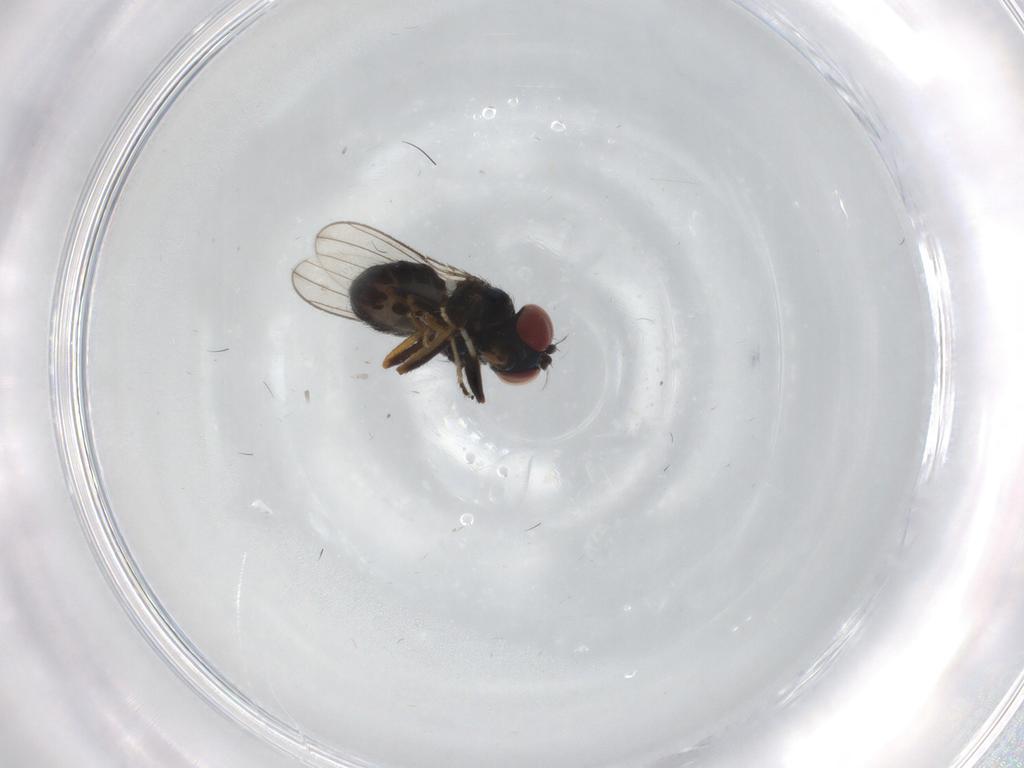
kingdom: Animalia
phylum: Arthropoda
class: Insecta
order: Diptera
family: Ephydridae
